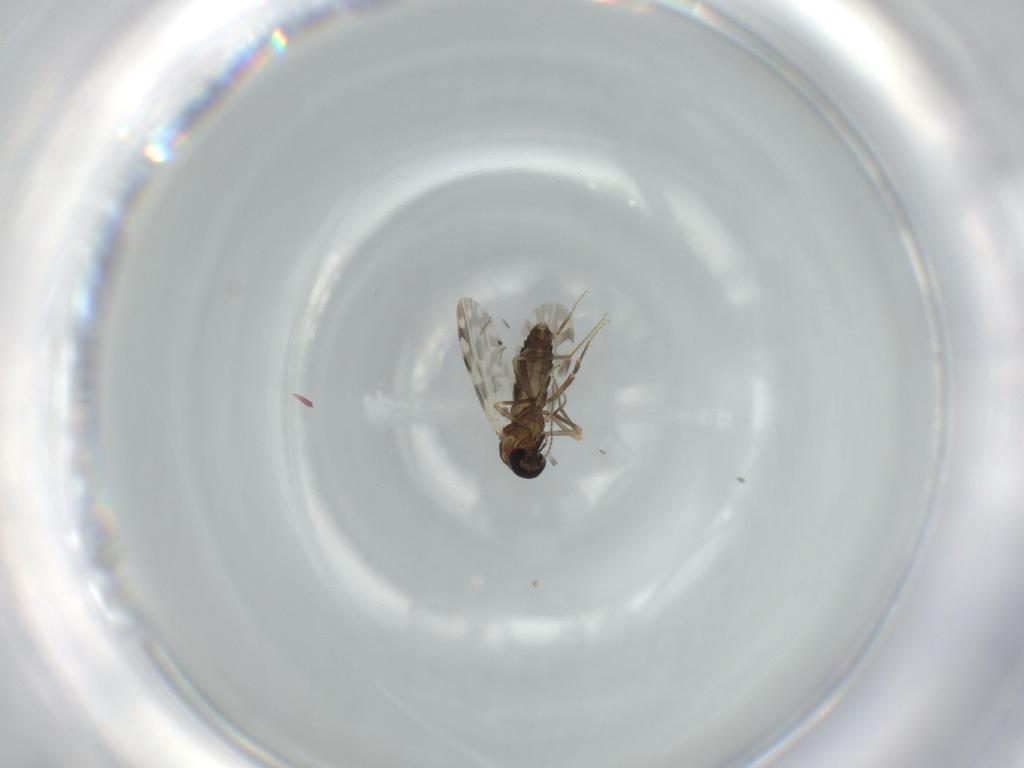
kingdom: Animalia
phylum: Arthropoda
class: Insecta
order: Diptera
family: Ceratopogonidae
